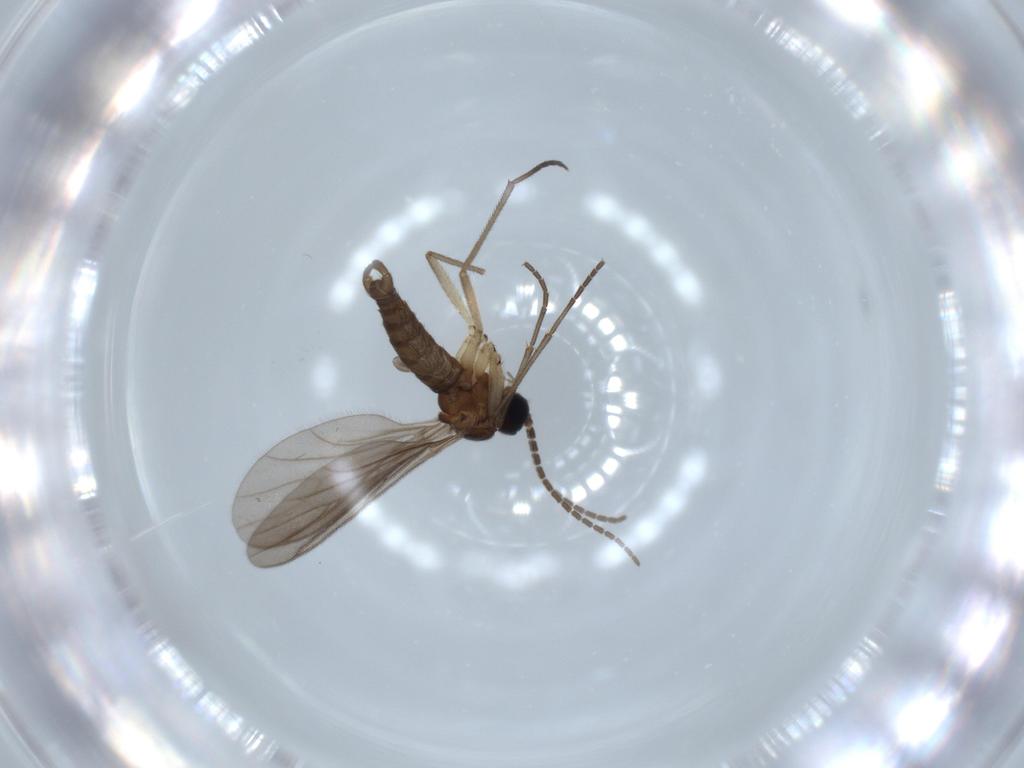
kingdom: Animalia
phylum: Arthropoda
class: Insecta
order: Diptera
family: Sciaridae
